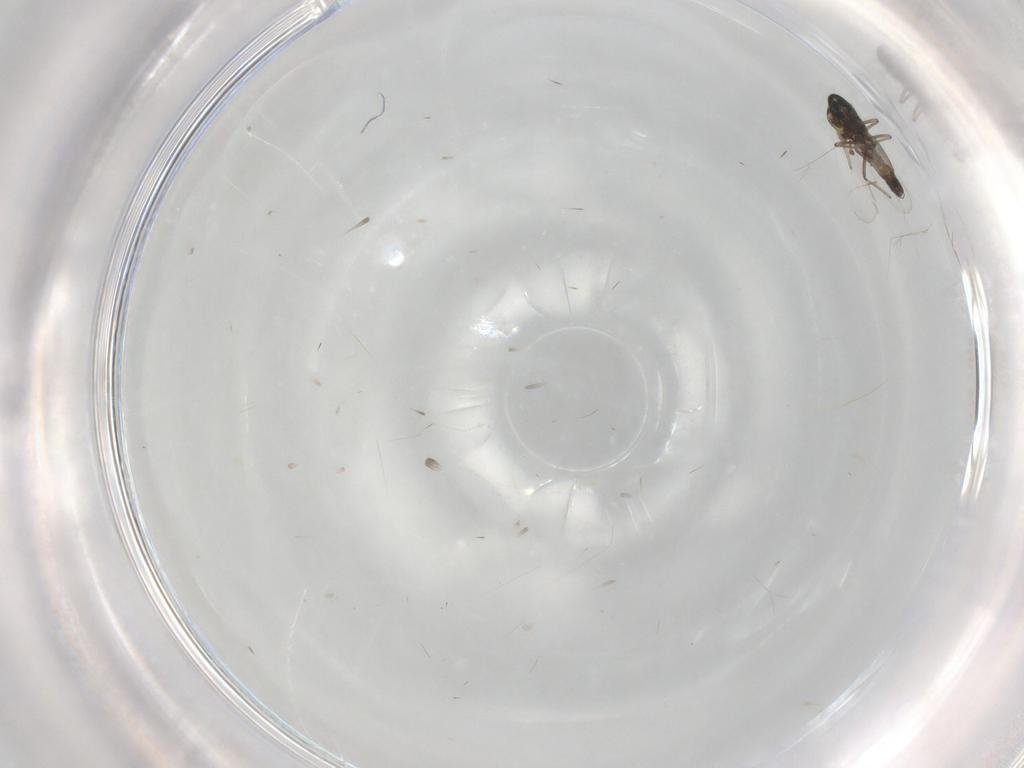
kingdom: Animalia
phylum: Arthropoda
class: Insecta
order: Diptera
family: Ceratopogonidae
